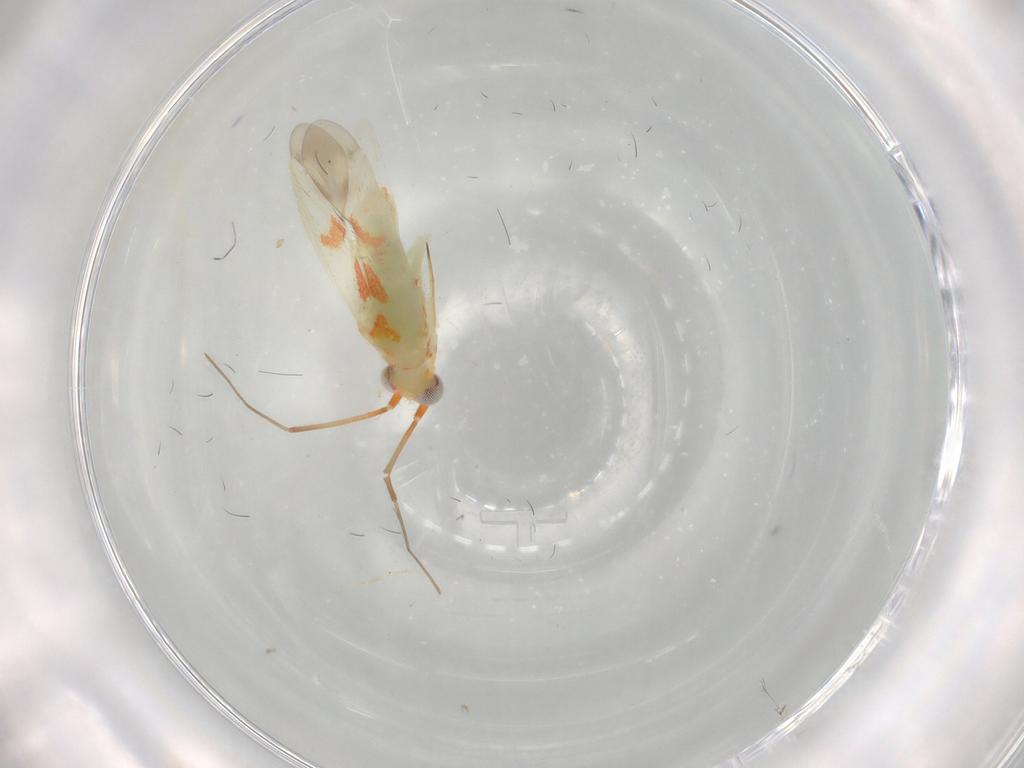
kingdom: Animalia
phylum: Arthropoda
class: Insecta
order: Hemiptera
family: Miridae
